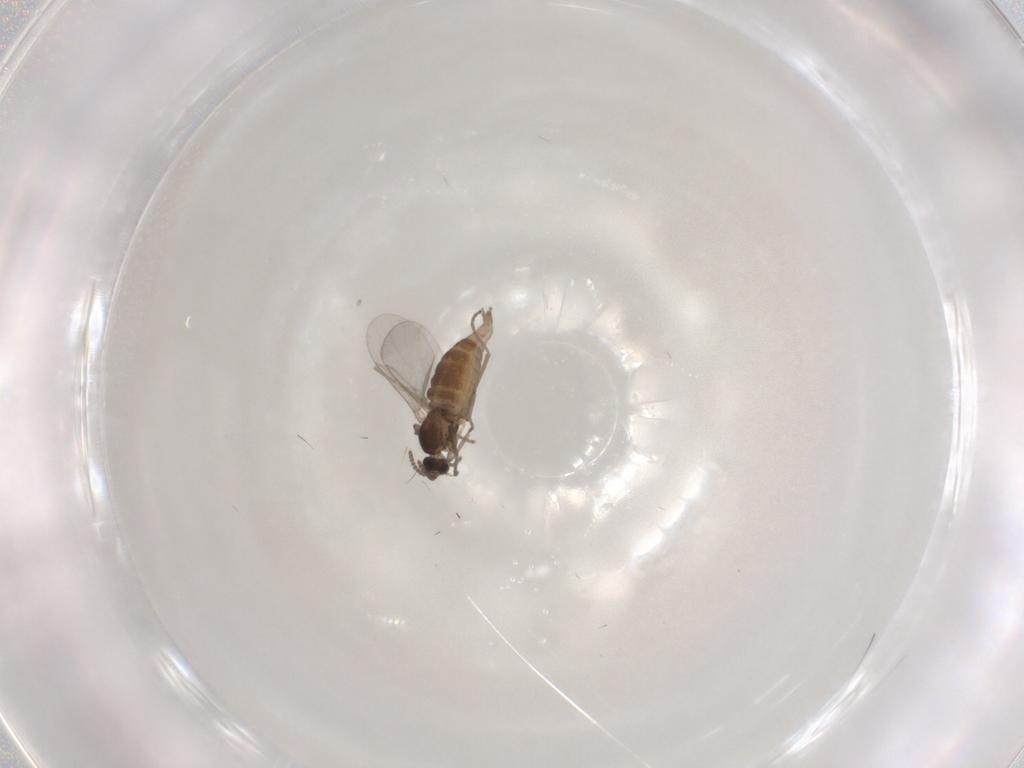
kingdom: Animalia
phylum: Arthropoda
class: Insecta
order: Diptera
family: Cecidomyiidae
